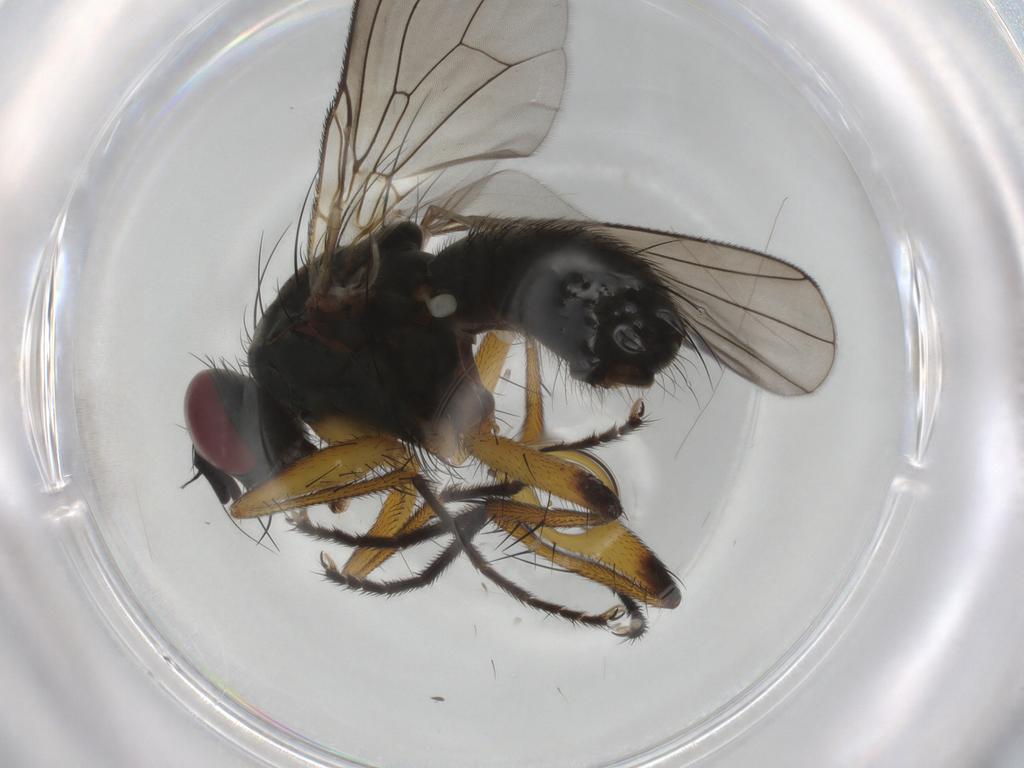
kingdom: Animalia
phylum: Arthropoda
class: Insecta
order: Diptera
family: Muscidae
